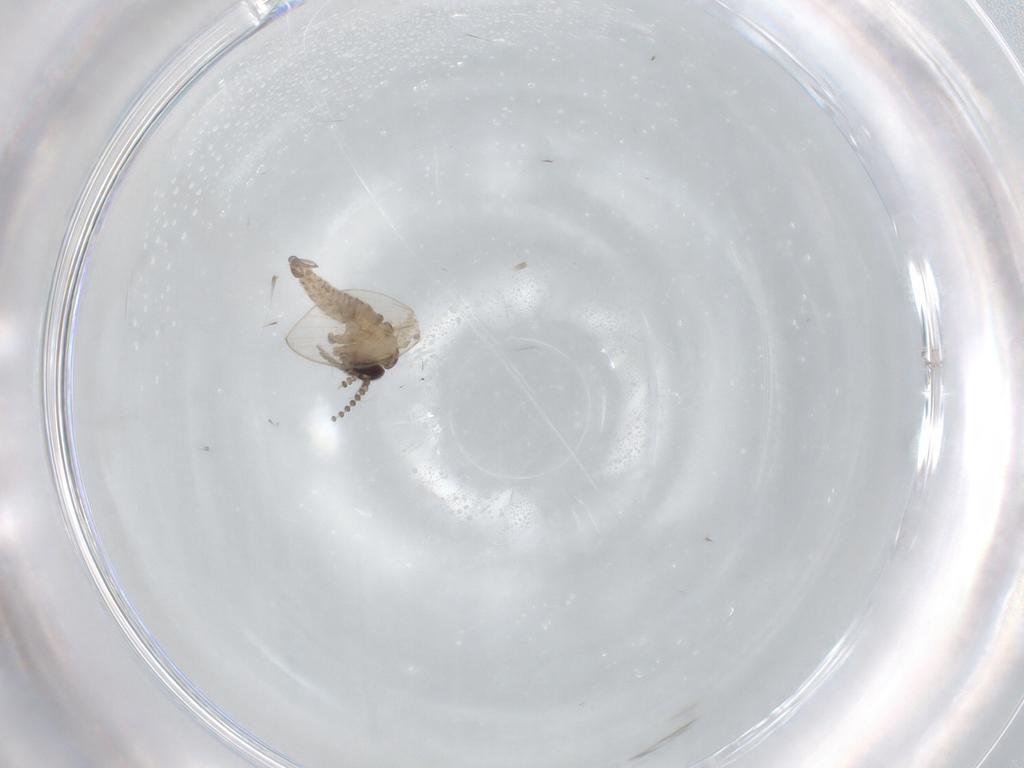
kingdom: Animalia
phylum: Arthropoda
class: Insecta
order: Diptera
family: Psychodidae
